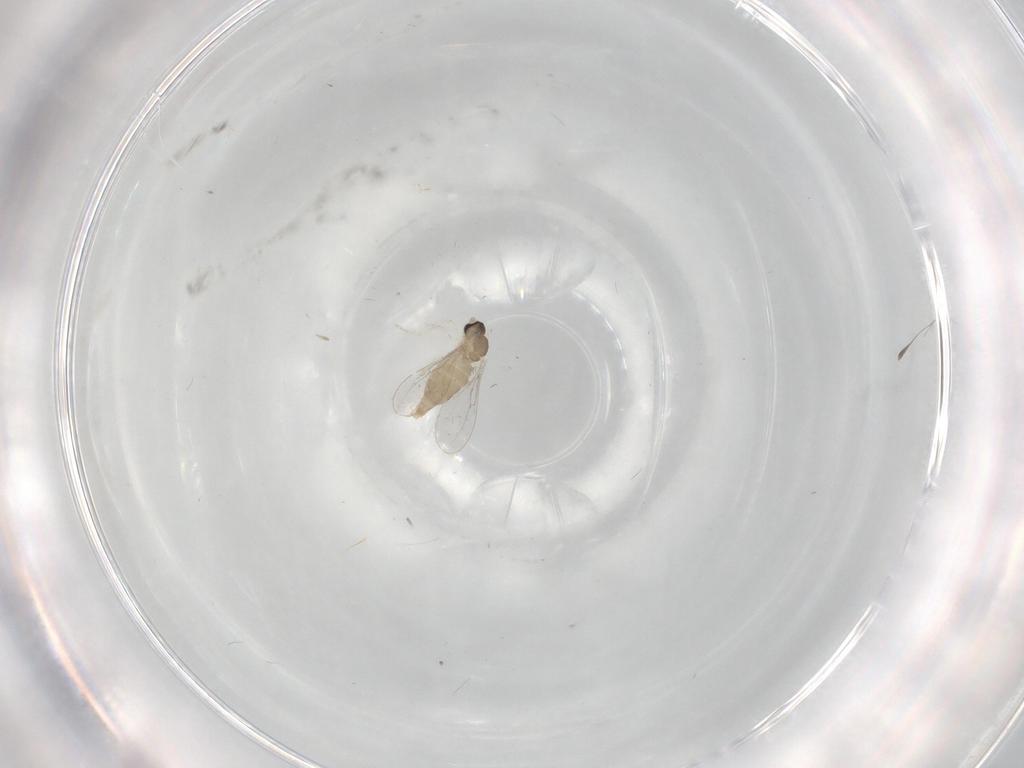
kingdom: Animalia
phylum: Arthropoda
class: Insecta
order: Diptera
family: Cecidomyiidae
